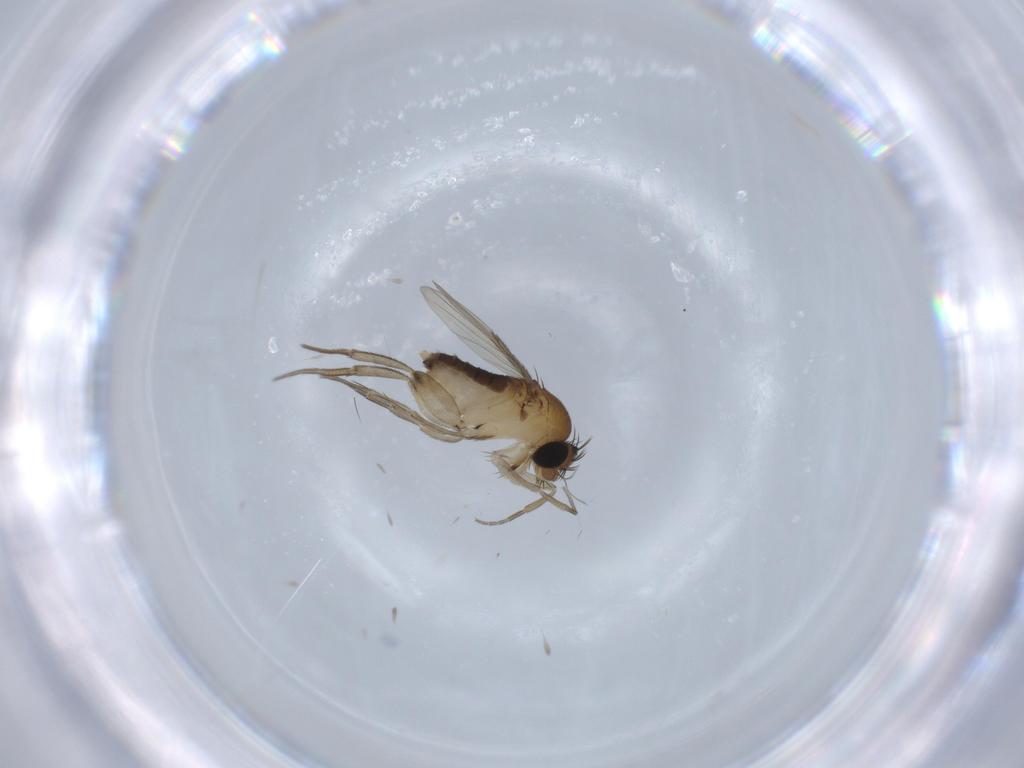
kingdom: Animalia
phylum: Arthropoda
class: Insecta
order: Diptera
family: Phoridae
